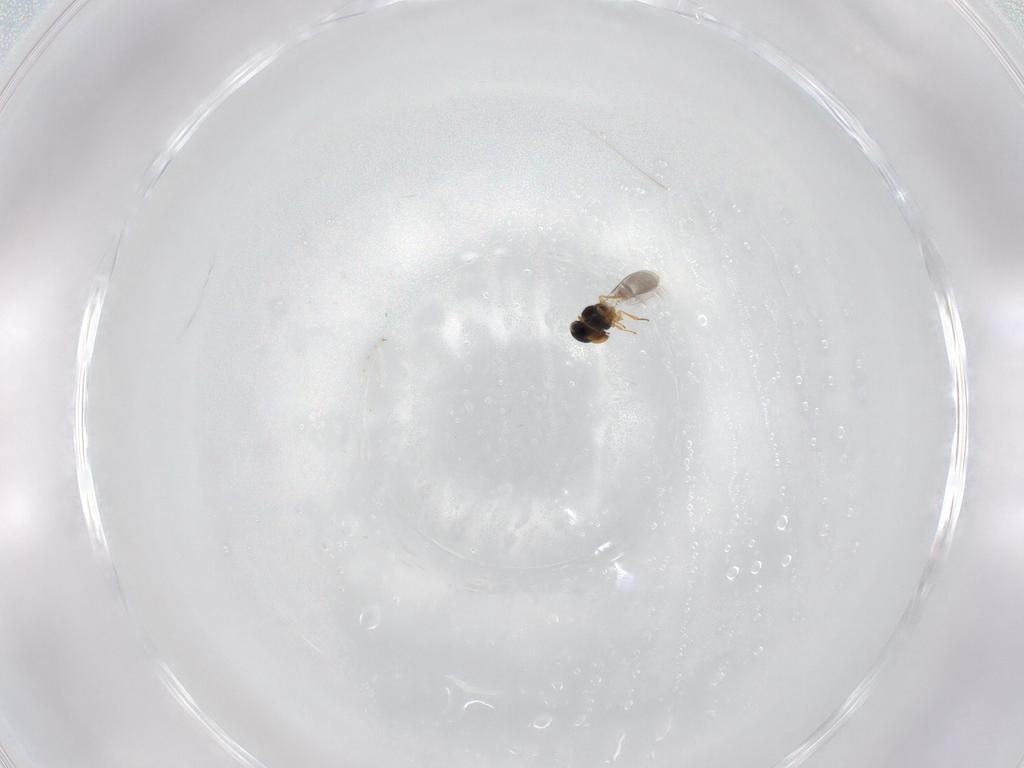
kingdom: Animalia
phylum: Arthropoda
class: Insecta
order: Hymenoptera
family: Platygastridae
